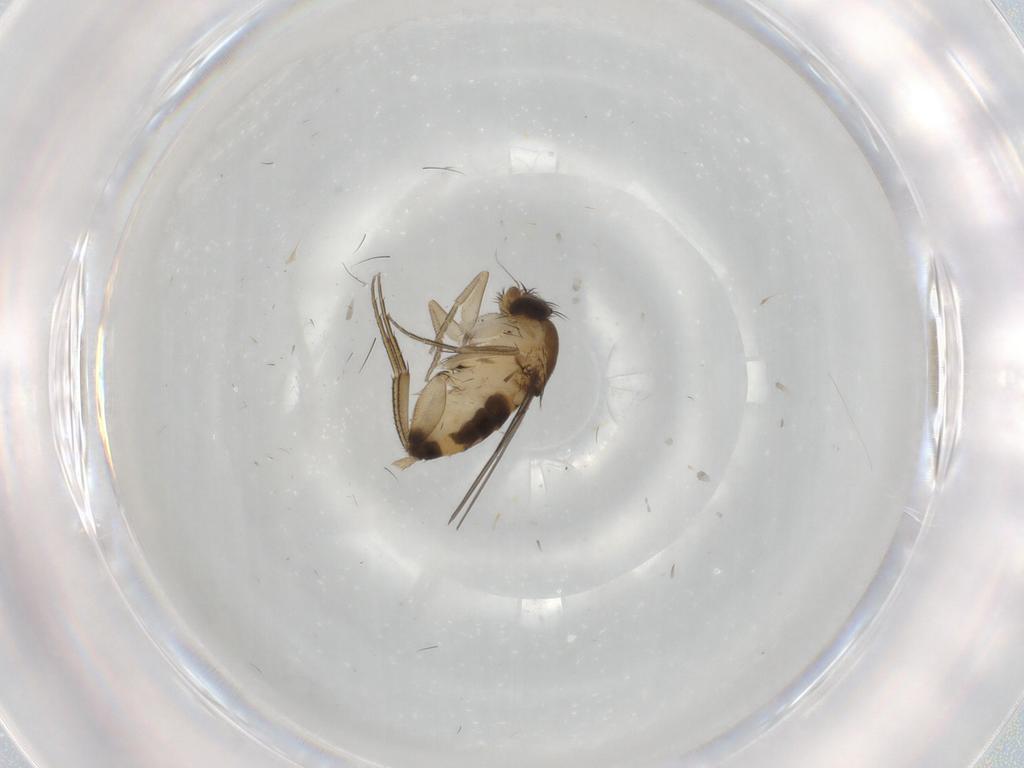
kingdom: Animalia
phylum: Arthropoda
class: Insecta
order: Diptera
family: Phoridae
